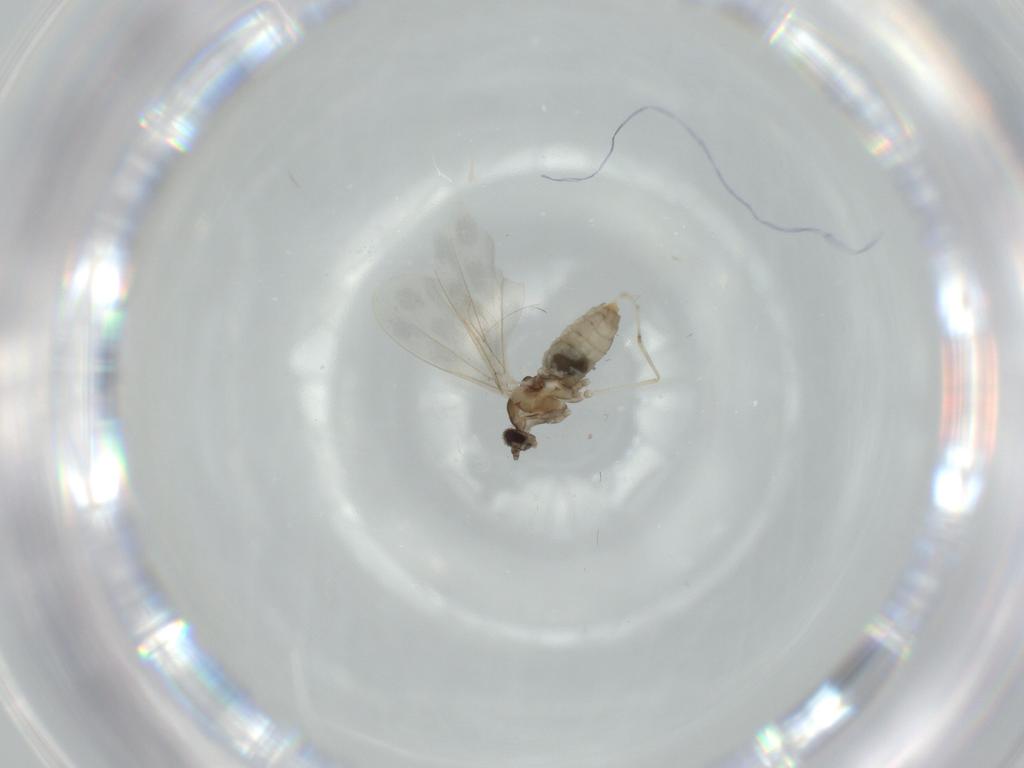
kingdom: Animalia
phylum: Arthropoda
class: Insecta
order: Diptera
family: Cecidomyiidae
